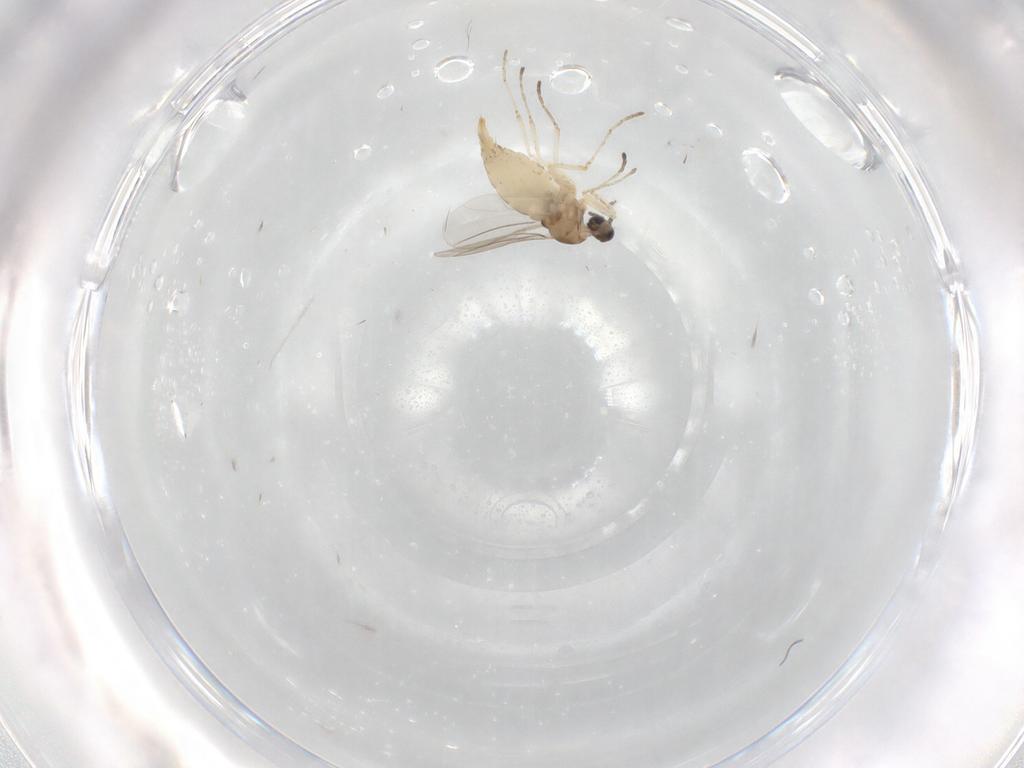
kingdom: Animalia
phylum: Arthropoda
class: Insecta
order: Diptera
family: Cecidomyiidae
